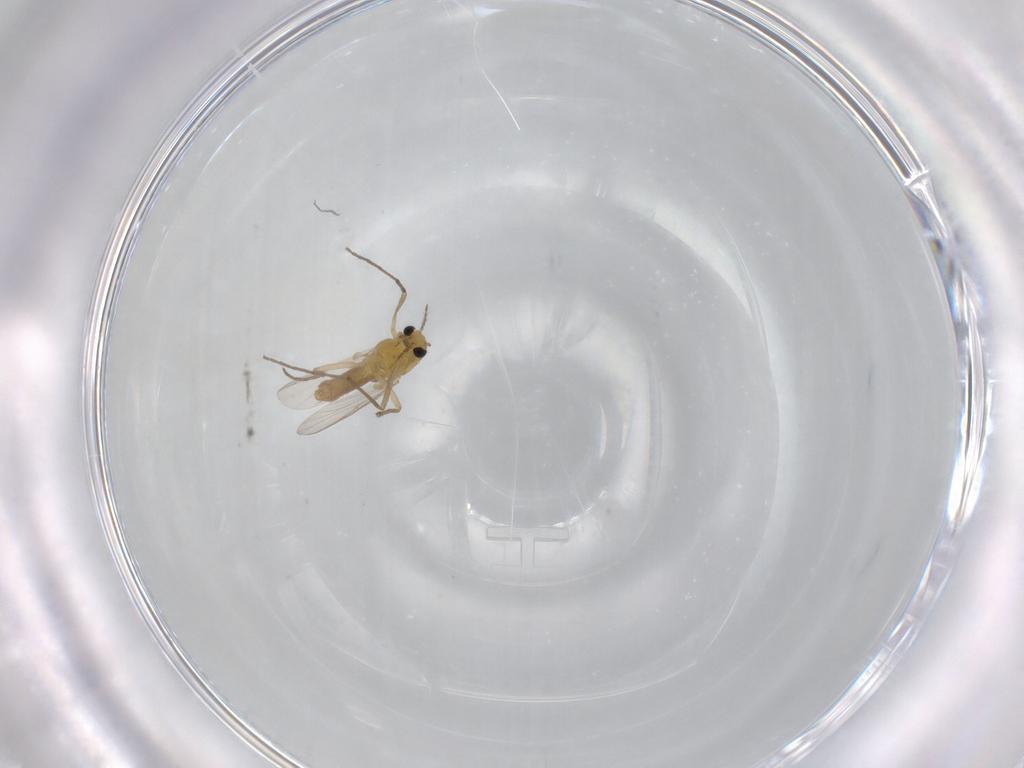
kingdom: Animalia
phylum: Arthropoda
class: Insecta
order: Diptera
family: Chironomidae
